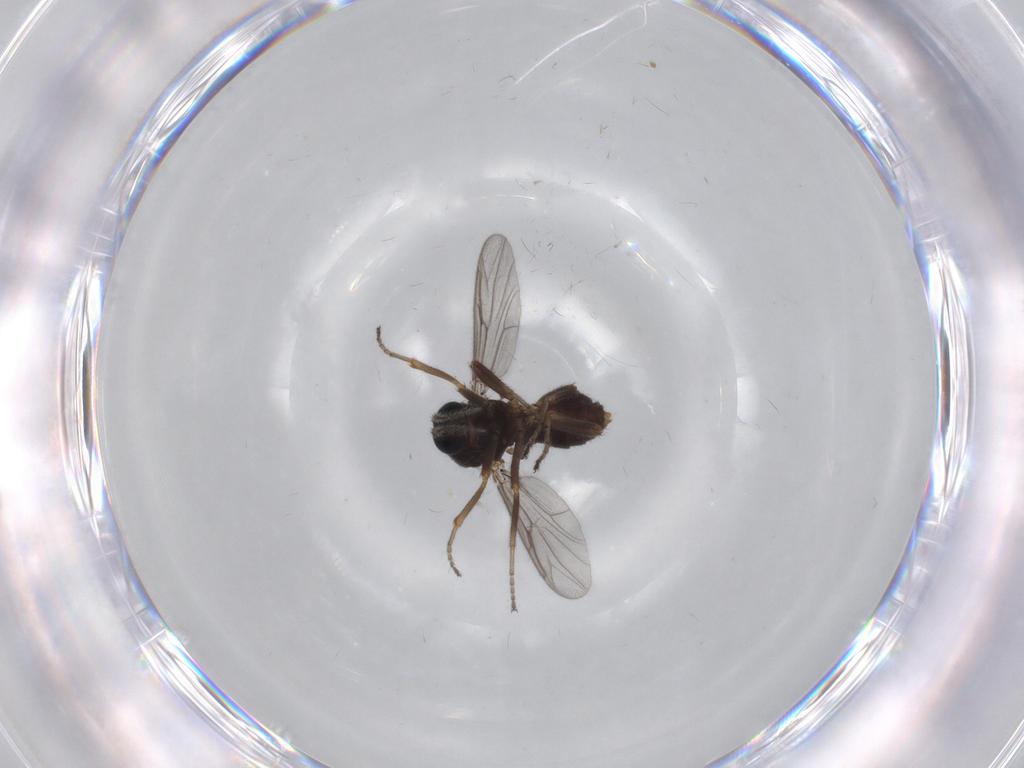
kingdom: Animalia
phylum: Arthropoda
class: Insecta
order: Diptera
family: Ceratopogonidae
